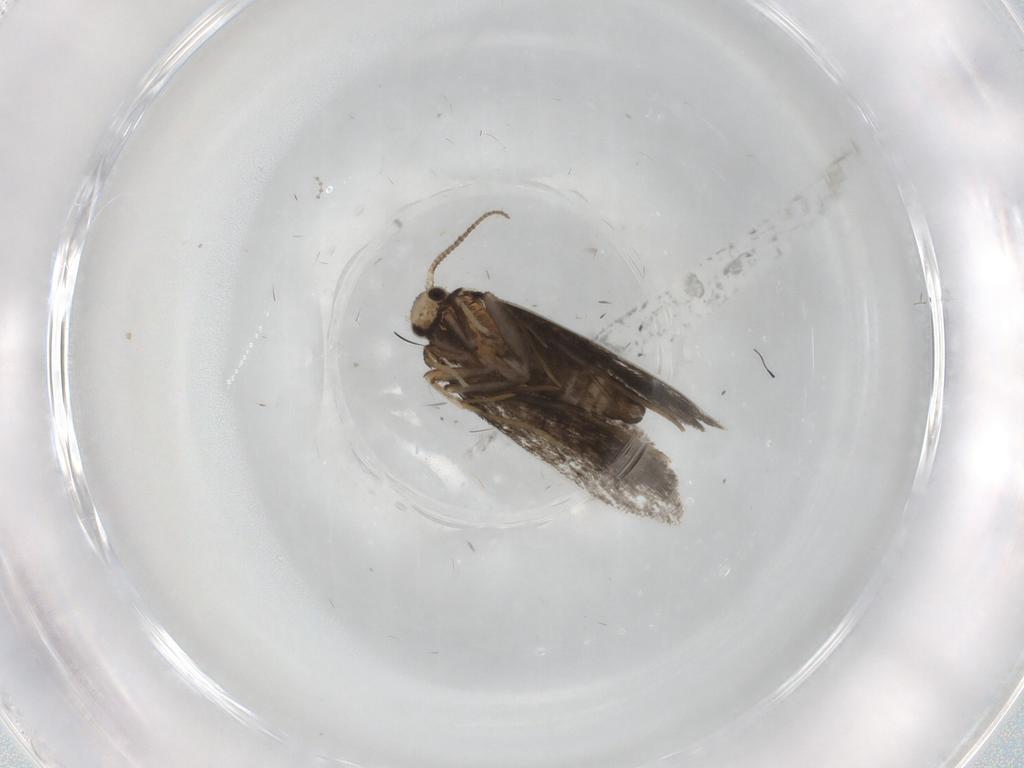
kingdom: Animalia
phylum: Arthropoda
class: Insecta
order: Lepidoptera
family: Psychidae
